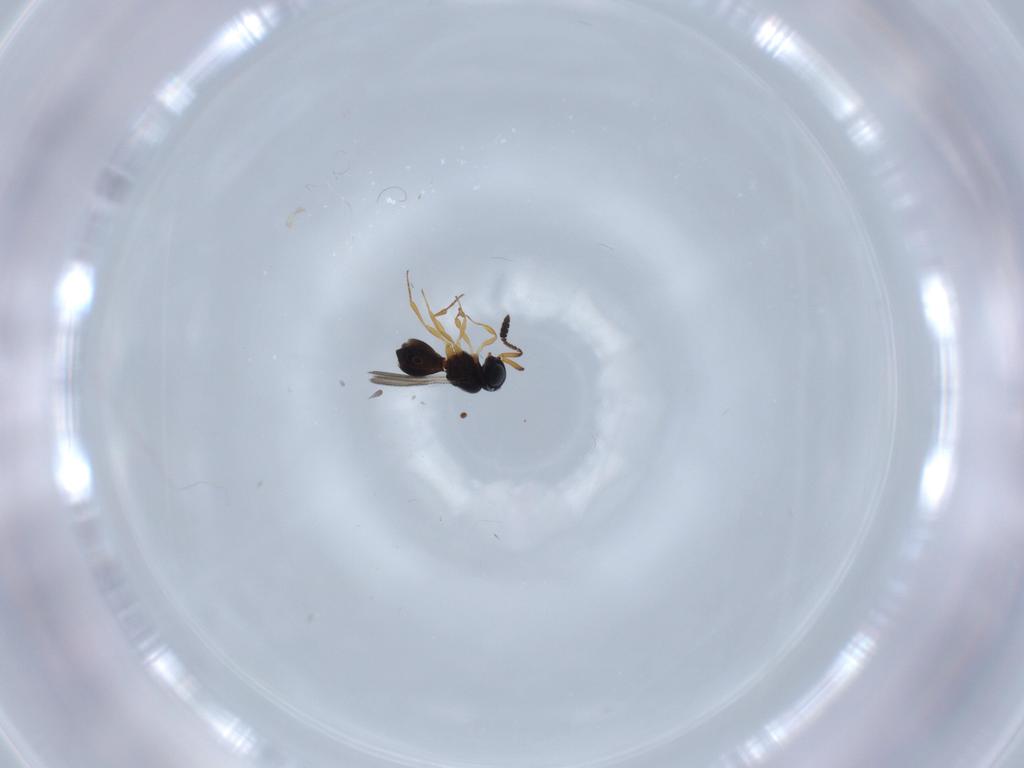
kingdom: Animalia
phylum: Arthropoda
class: Insecta
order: Hymenoptera
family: Scelionidae
